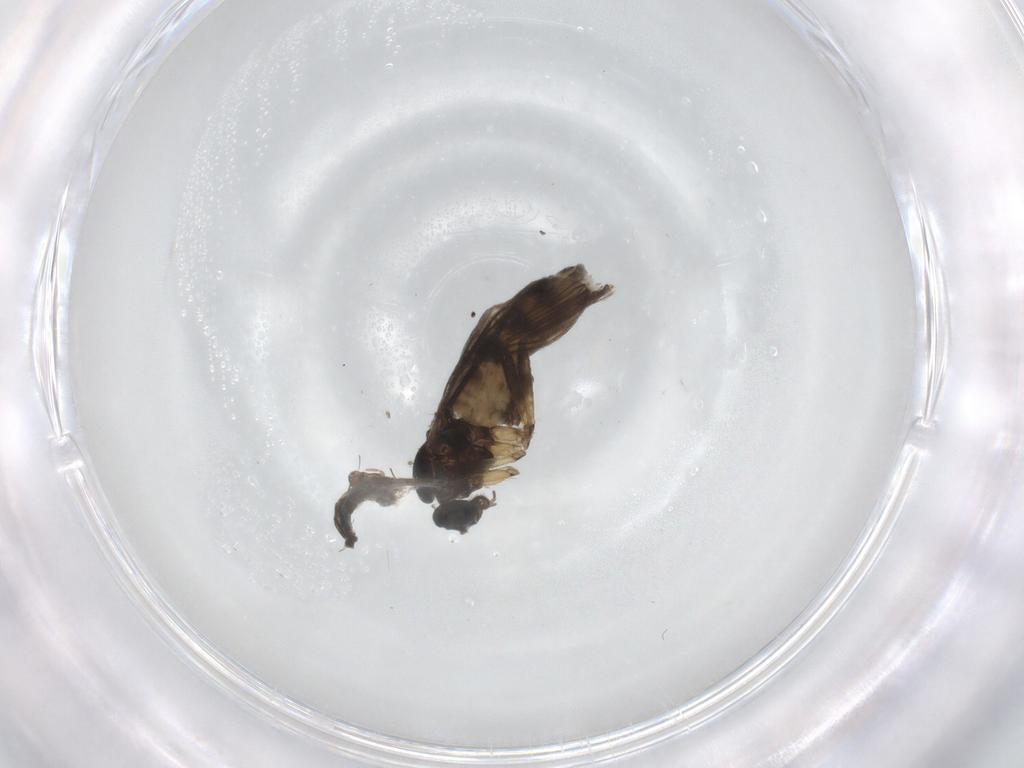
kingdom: Animalia
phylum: Arthropoda
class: Insecta
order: Diptera
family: Sciaridae
